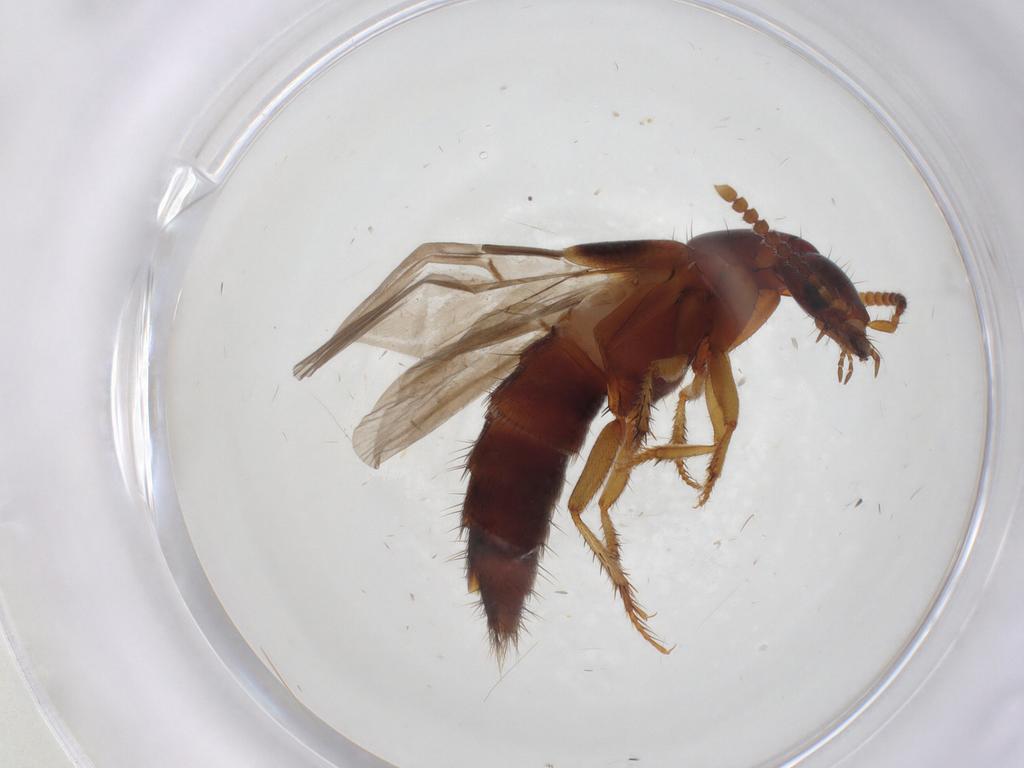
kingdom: Animalia
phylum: Arthropoda
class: Insecta
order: Coleoptera
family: Staphylinidae
